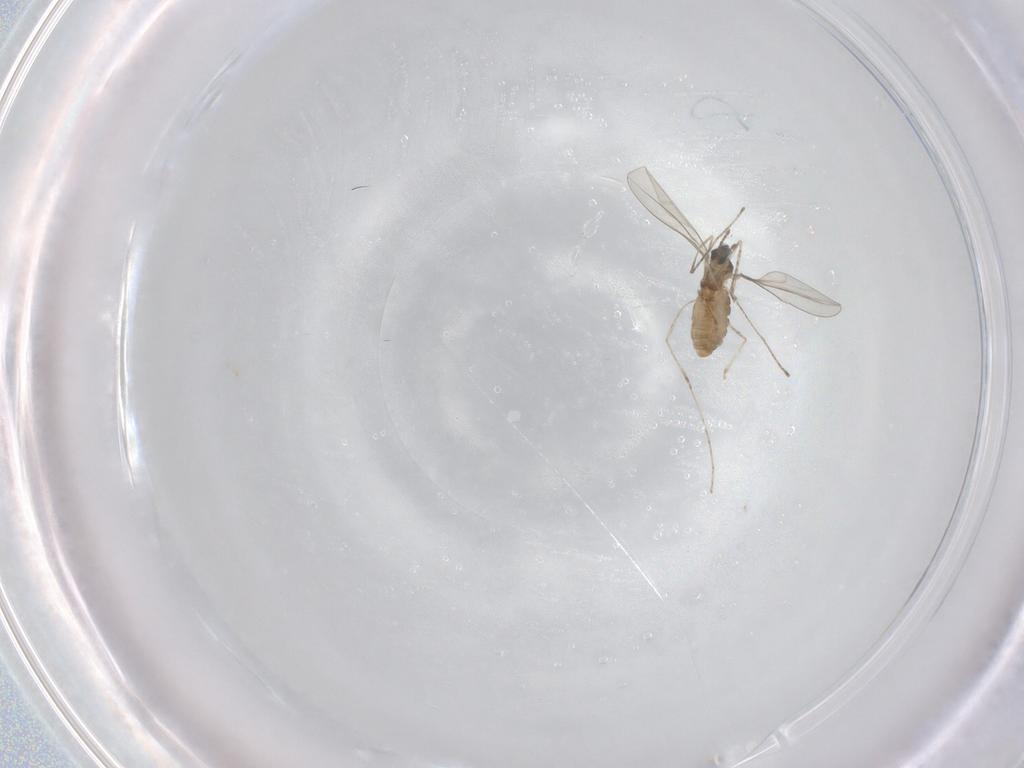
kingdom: Animalia
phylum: Arthropoda
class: Insecta
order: Diptera
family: Cecidomyiidae
